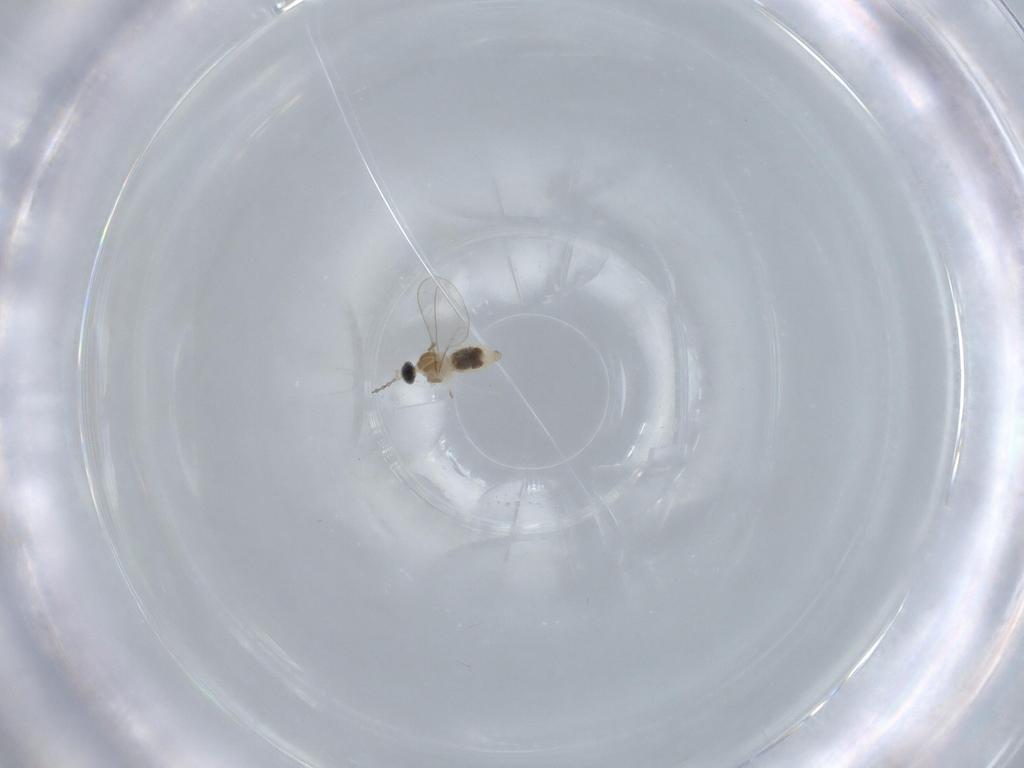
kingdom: Animalia
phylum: Arthropoda
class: Insecta
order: Diptera
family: Cecidomyiidae
